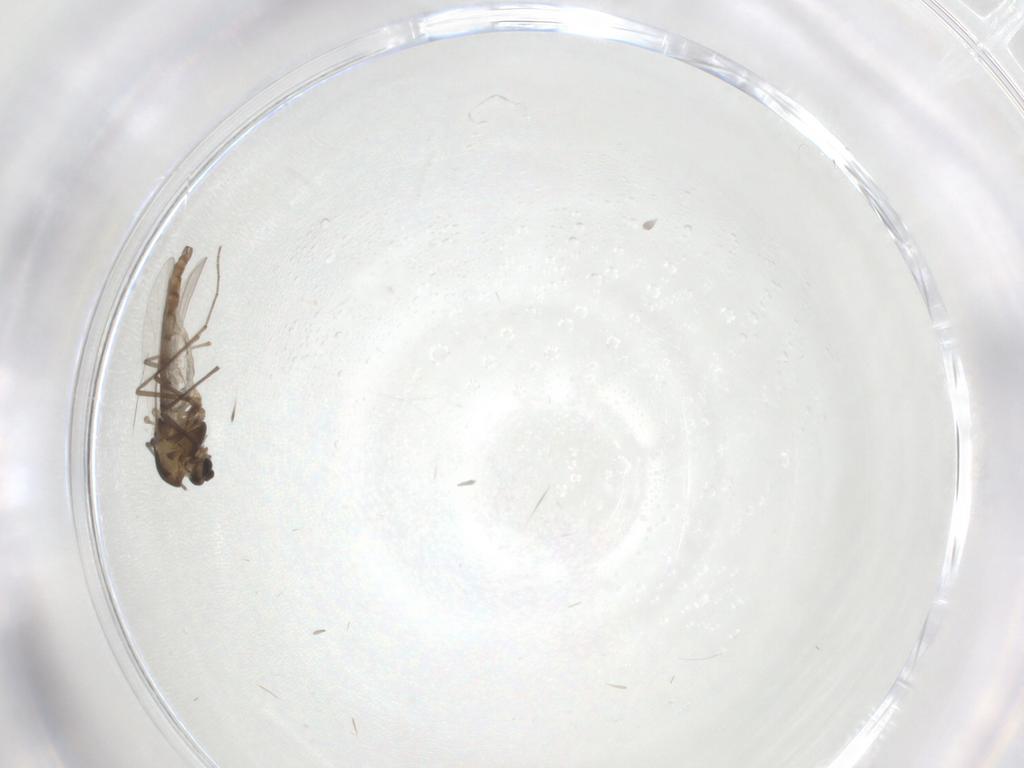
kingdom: Animalia
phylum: Arthropoda
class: Insecta
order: Diptera
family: Chironomidae
